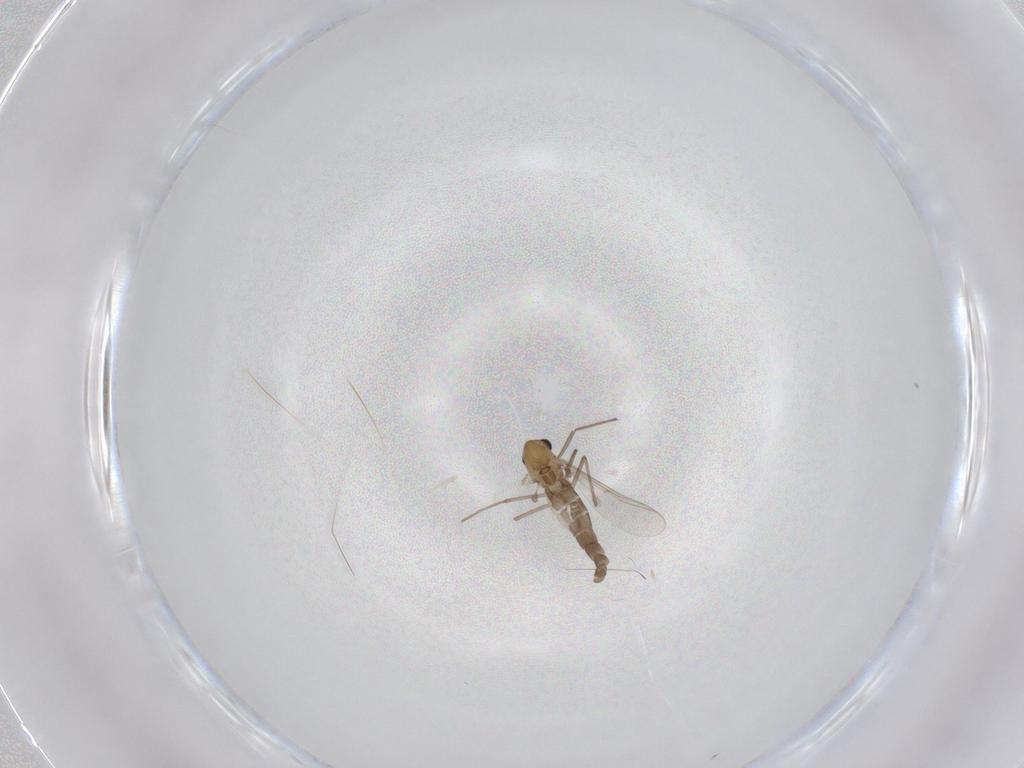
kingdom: Animalia
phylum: Arthropoda
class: Insecta
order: Diptera
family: Chironomidae
